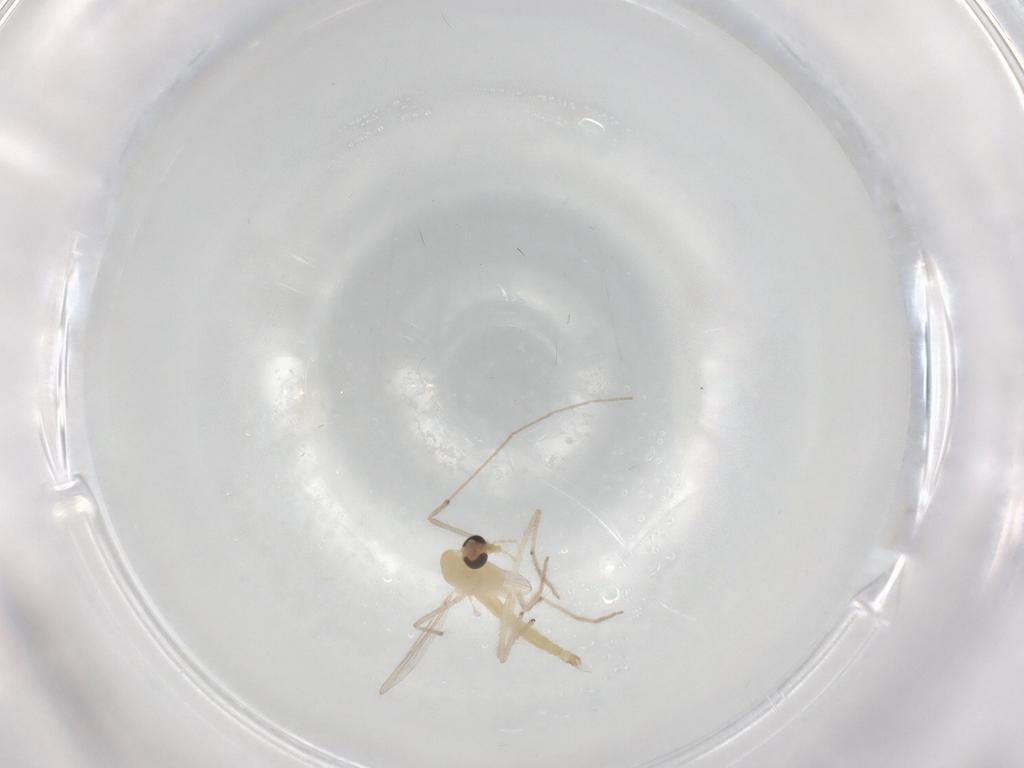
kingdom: Animalia
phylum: Arthropoda
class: Insecta
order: Diptera
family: Chironomidae
